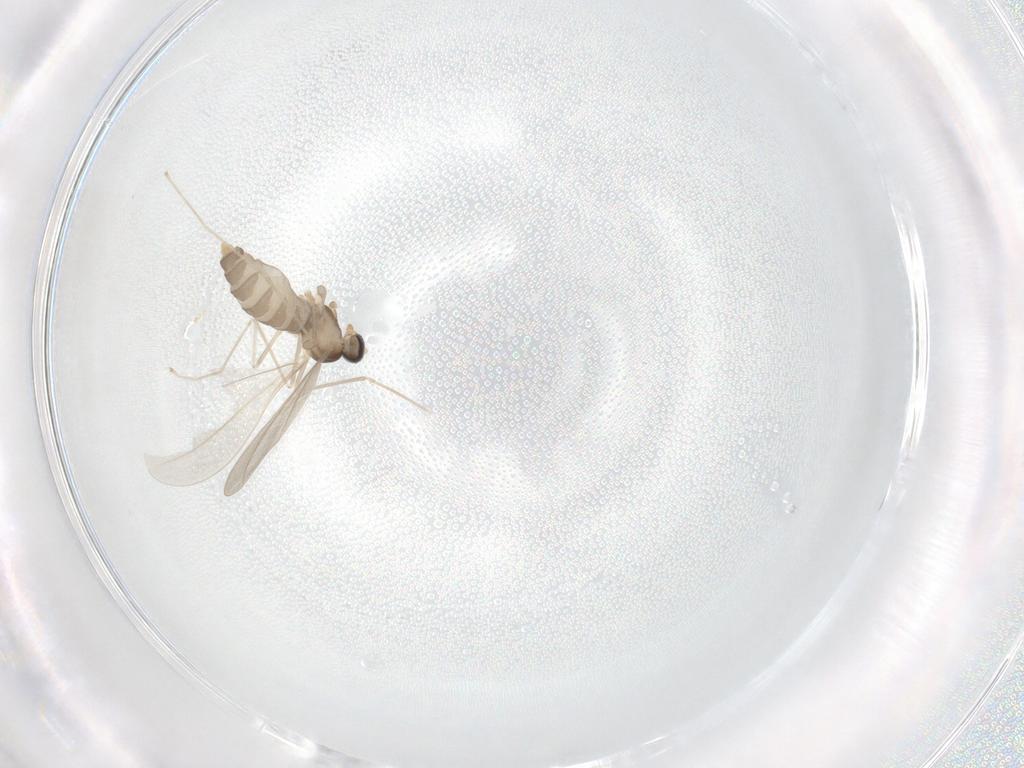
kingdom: Animalia
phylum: Arthropoda
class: Insecta
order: Diptera
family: Cecidomyiidae
